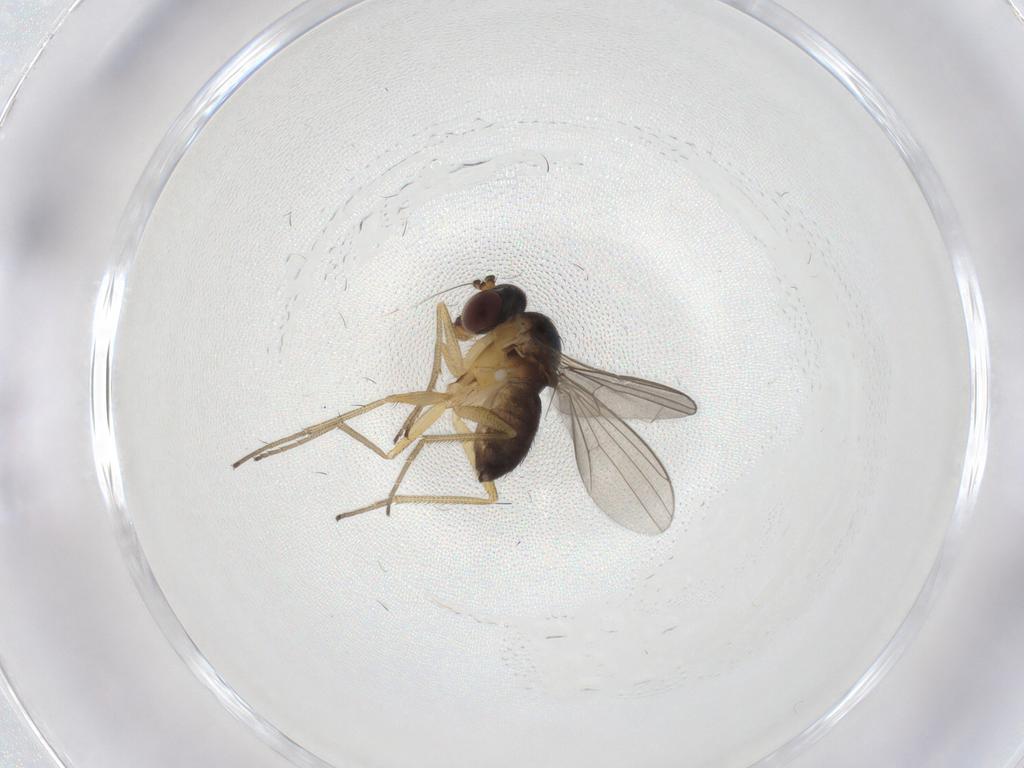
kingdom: Animalia
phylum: Arthropoda
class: Insecta
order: Diptera
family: Dolichopodidae
